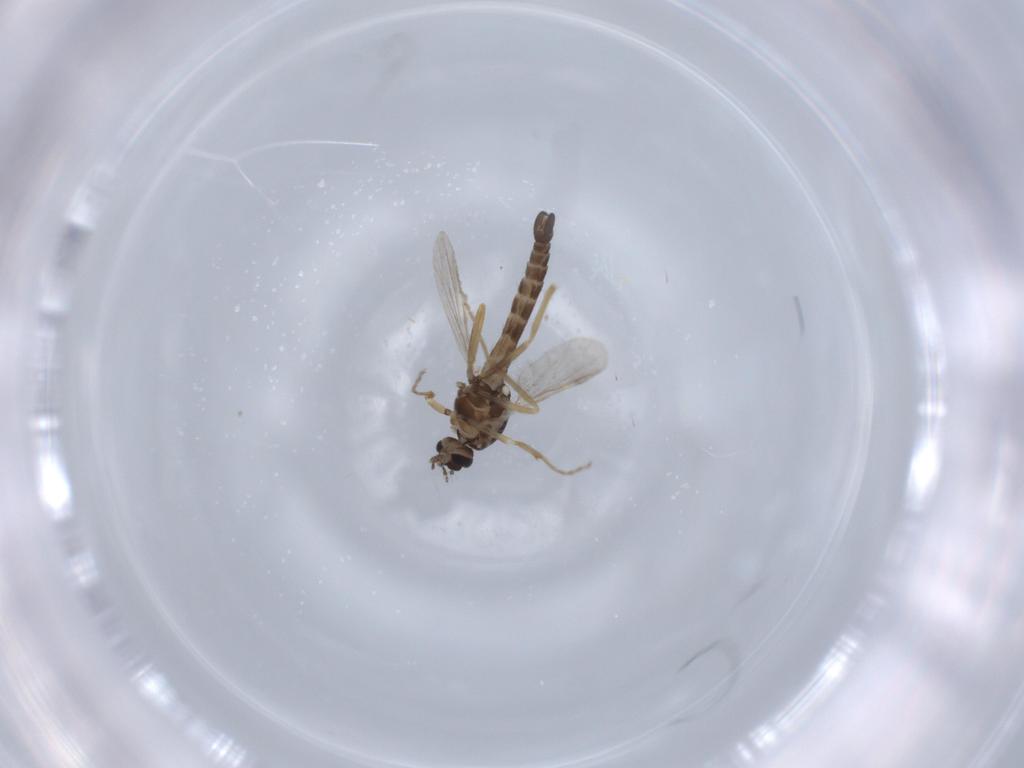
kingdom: Animalia
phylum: Arthropoda
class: Insecta
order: Diptera
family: Ceratopogonidae
